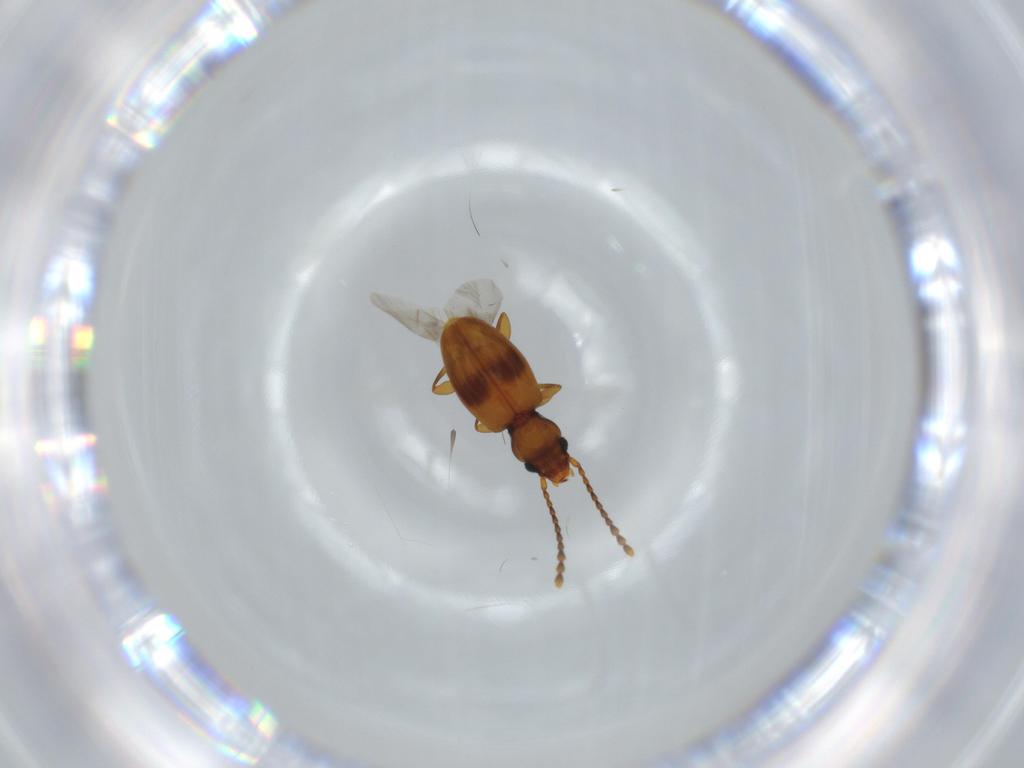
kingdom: Animalia
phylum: Arthropoda
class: Insecta
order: Coleoptera
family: Laemophloeidae
